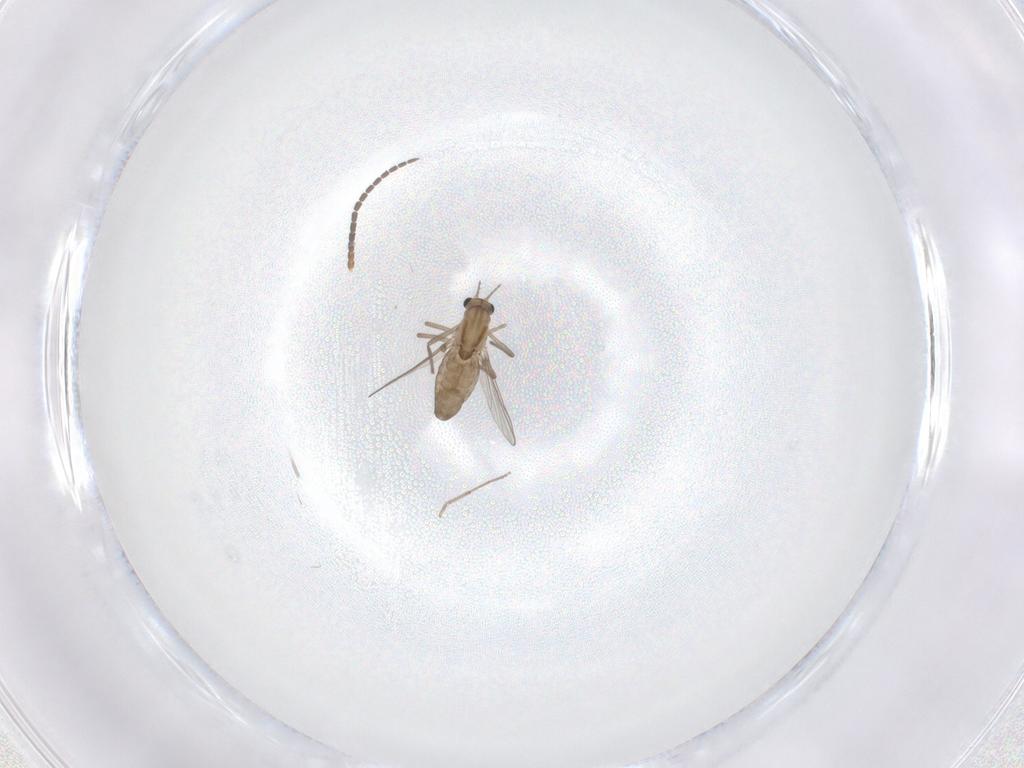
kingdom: Animalia
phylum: Arthropoda
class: Insecta
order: Diptera
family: Chironomidae
